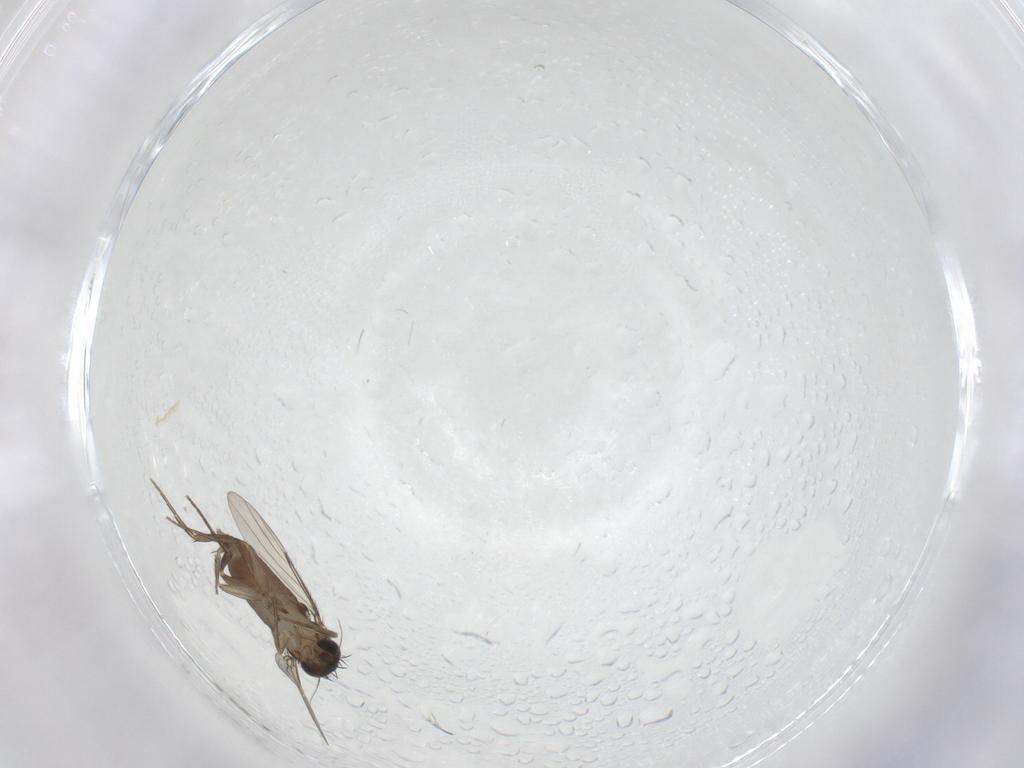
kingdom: Animalia
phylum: Arthropoda
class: Insecta
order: Diptera
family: Phoridae
